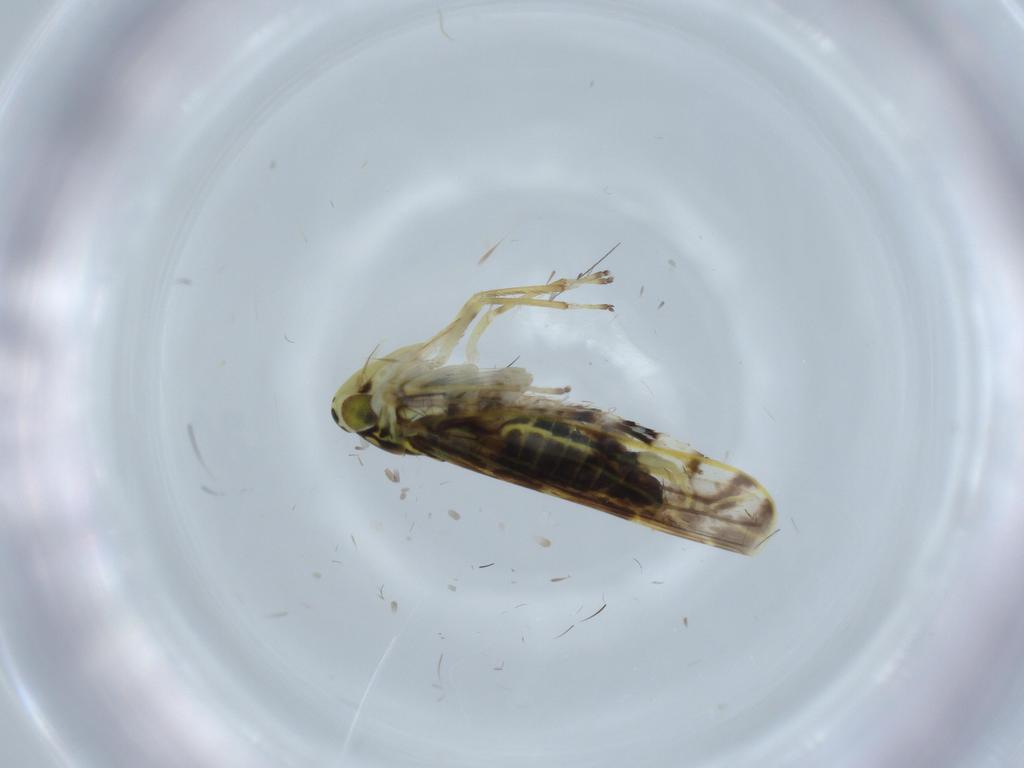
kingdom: Animalia
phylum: Arthropoda
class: Insecta
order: Hemiptera
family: Cicadellidae
